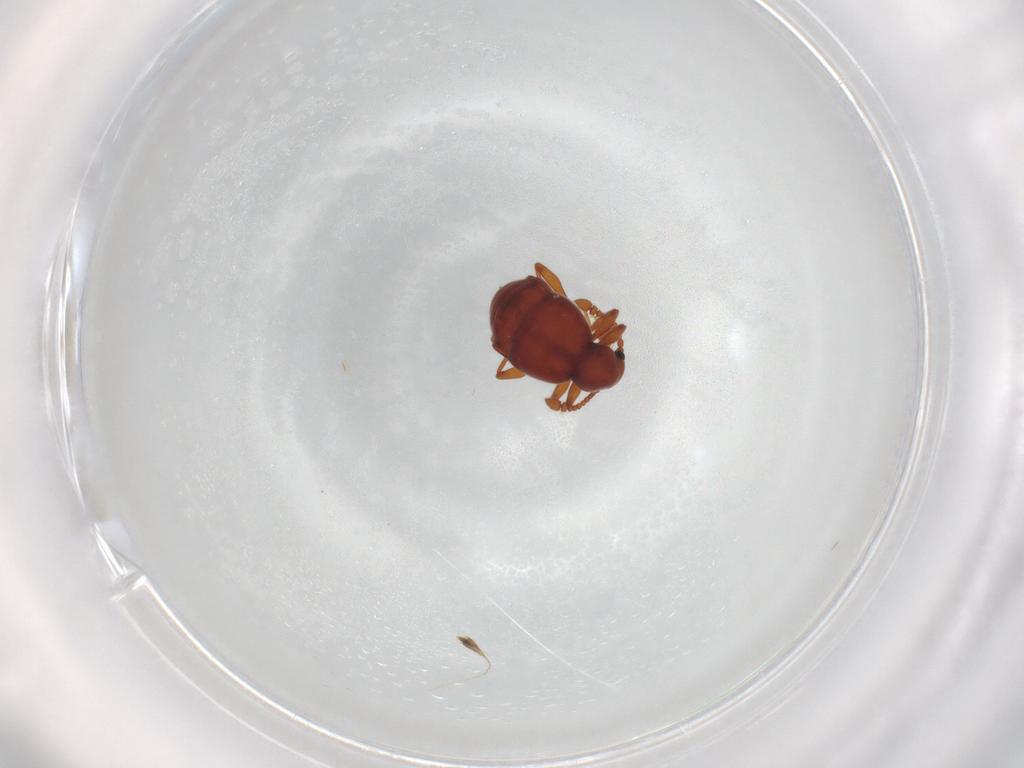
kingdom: Animalia
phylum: Arthropoda
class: Insecta
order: Coleoptera
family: Staphylinidae
